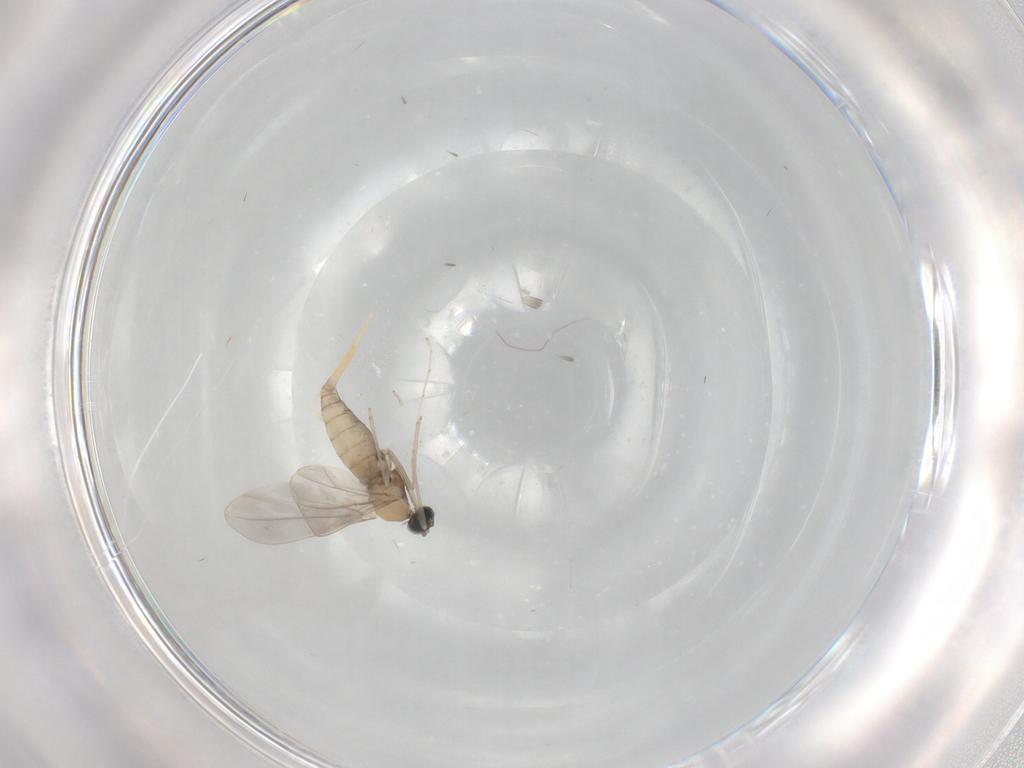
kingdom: Animalia
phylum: Arthropoda
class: Insecta
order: Diptera
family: Cecidomyiidae
